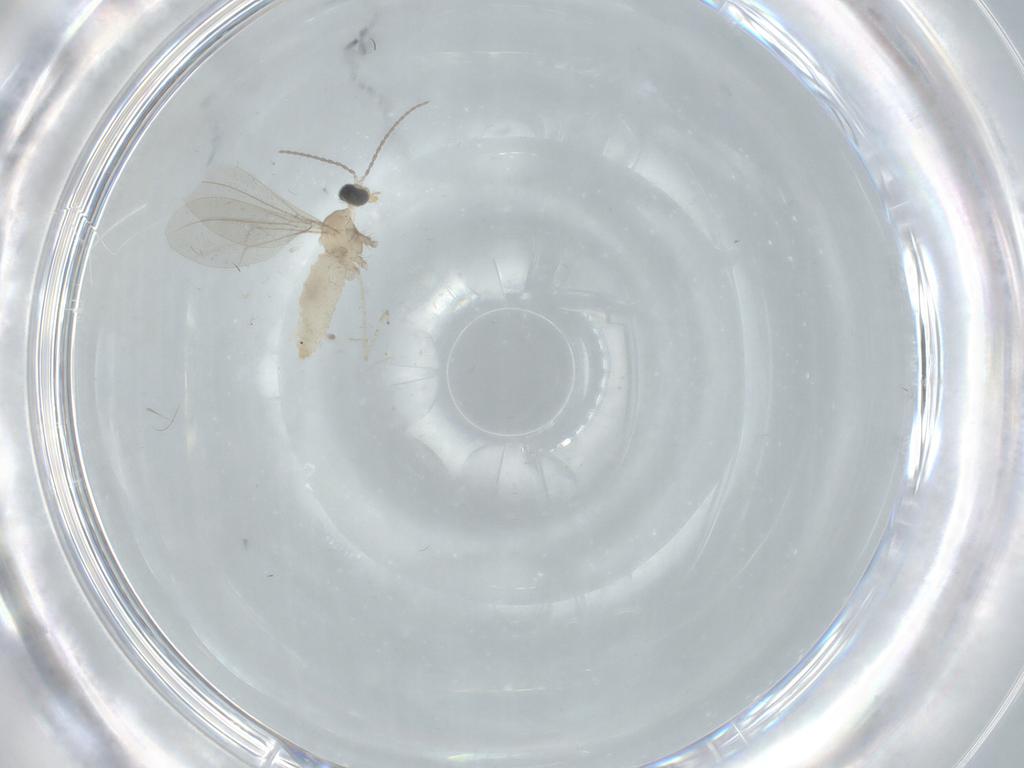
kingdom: Animalia
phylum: Arthropoda
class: Insecta
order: Diptera
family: Cecidomyiidae
